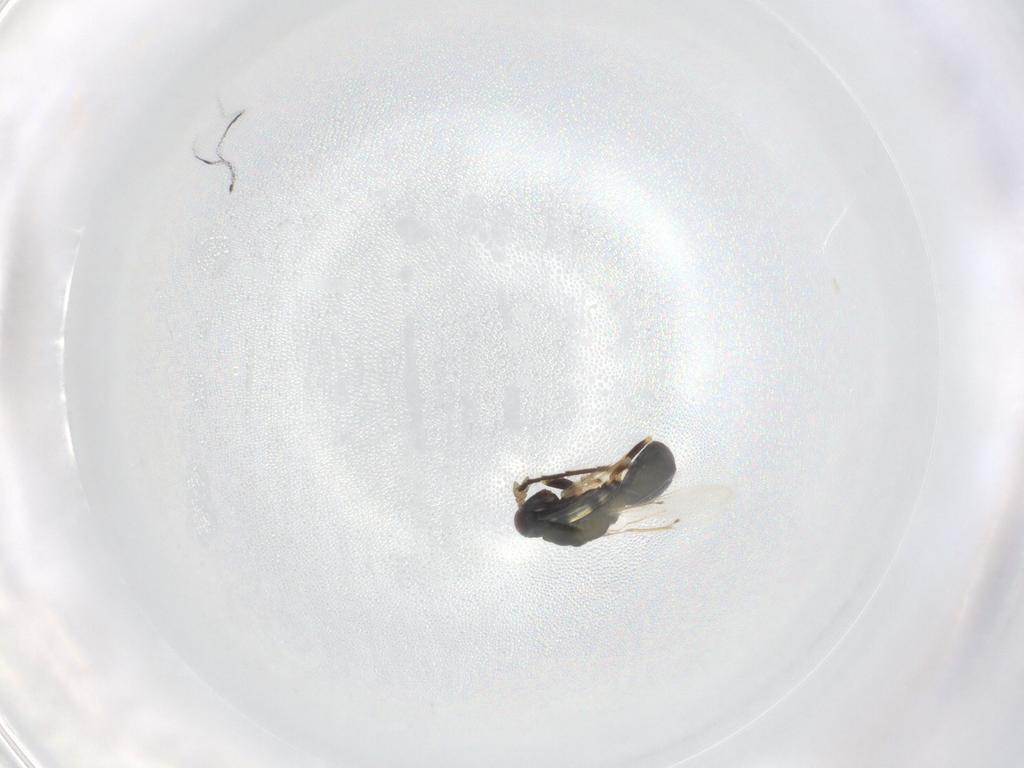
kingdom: Animalia
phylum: Arthropoda
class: Insecta
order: Hymenoptera
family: Eulophidae
